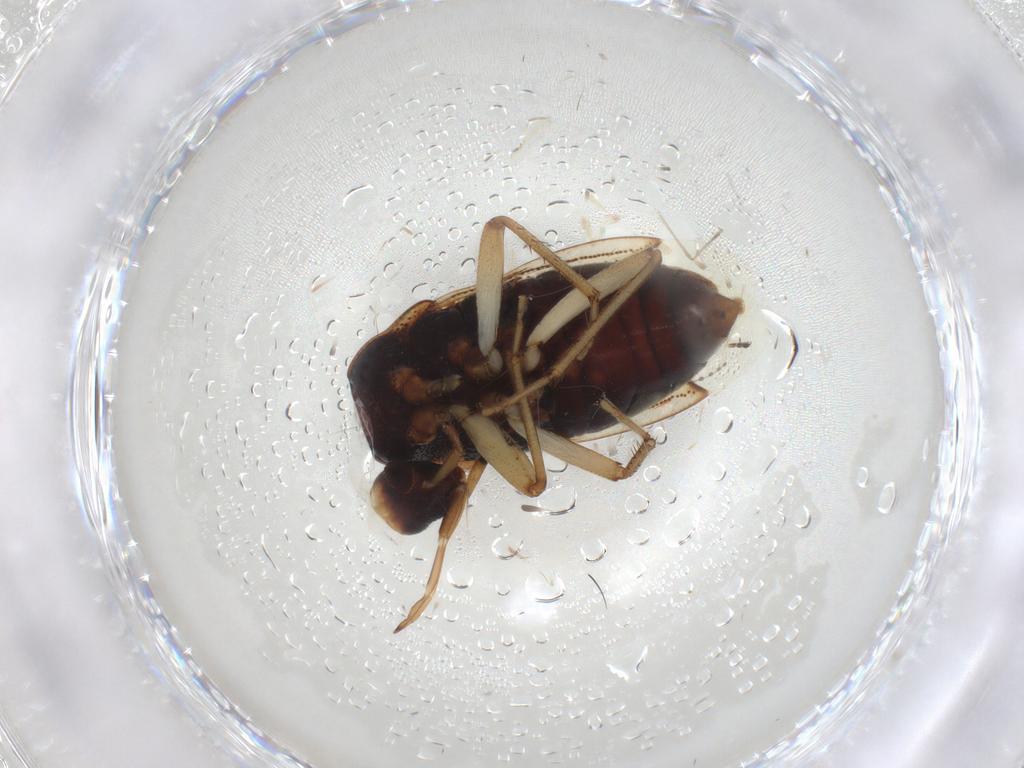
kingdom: Animalia
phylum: Arthropoda
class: Insecta
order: Hemiptera
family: Rhyparochromidae
